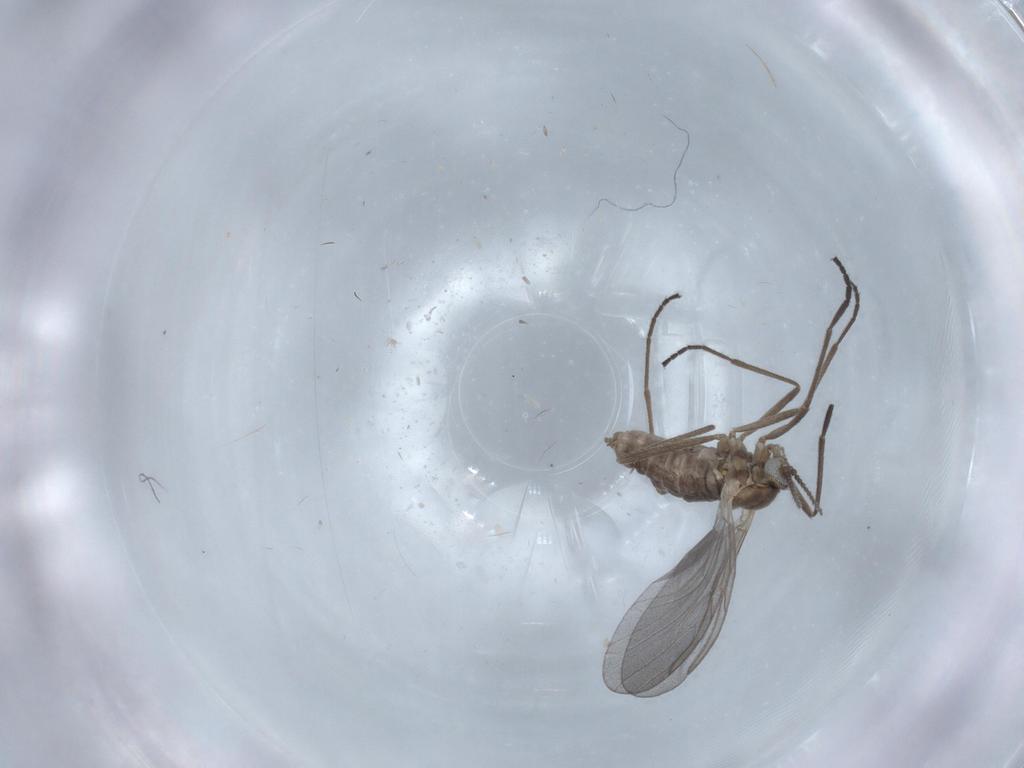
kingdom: Animalia
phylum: Arthropoda
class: Insecta
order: Diptera
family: Cecidomyiidae
